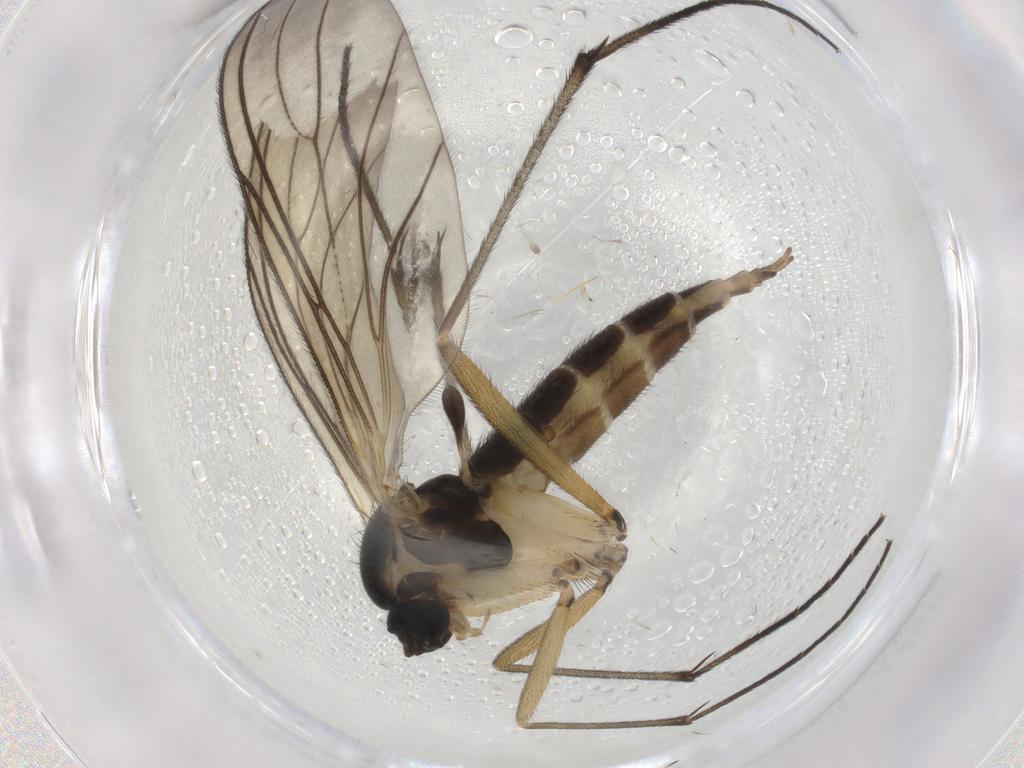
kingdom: Animalia
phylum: Arthropoda
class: Insecta
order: Diptera
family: Sciaridae
